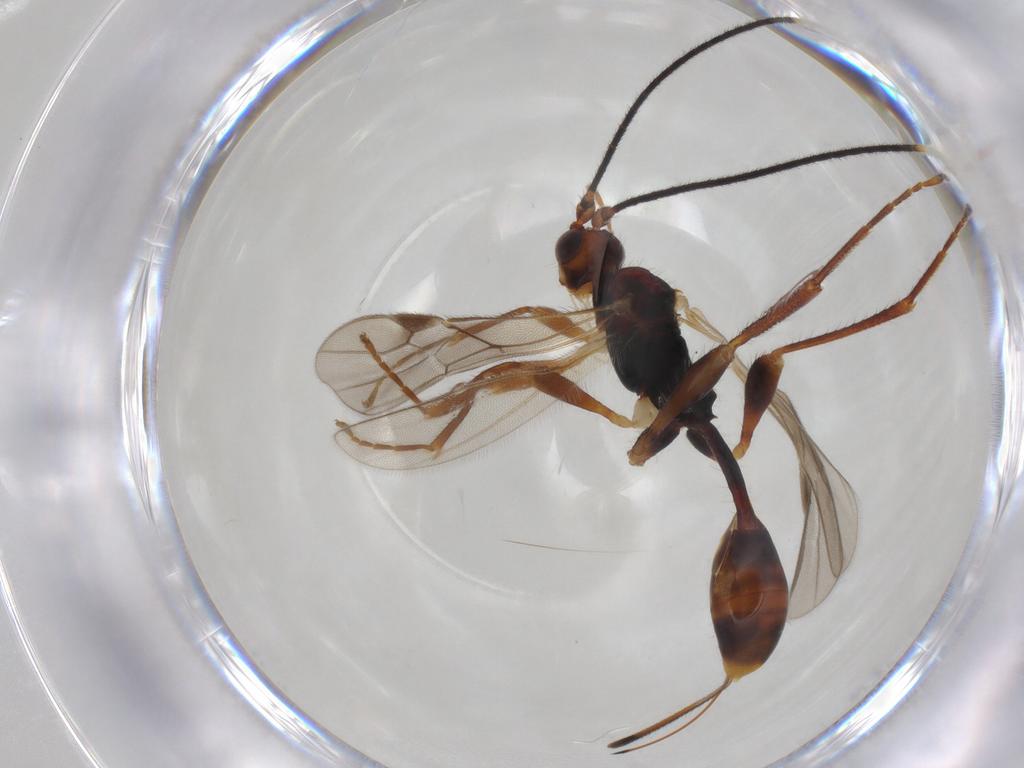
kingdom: Animalia
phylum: Arthropoda
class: Insecta
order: Hymenoptera
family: Braconidae
